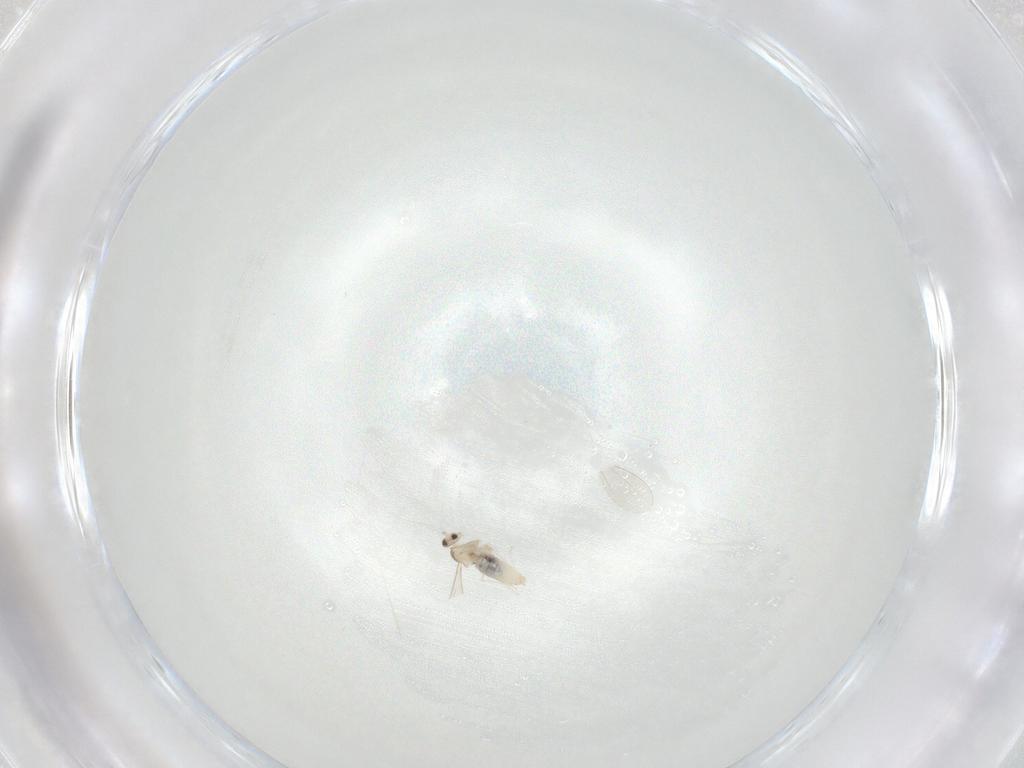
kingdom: Animalia
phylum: Arthropoda
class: Insecta
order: Diptera
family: Cecidomyiidae
